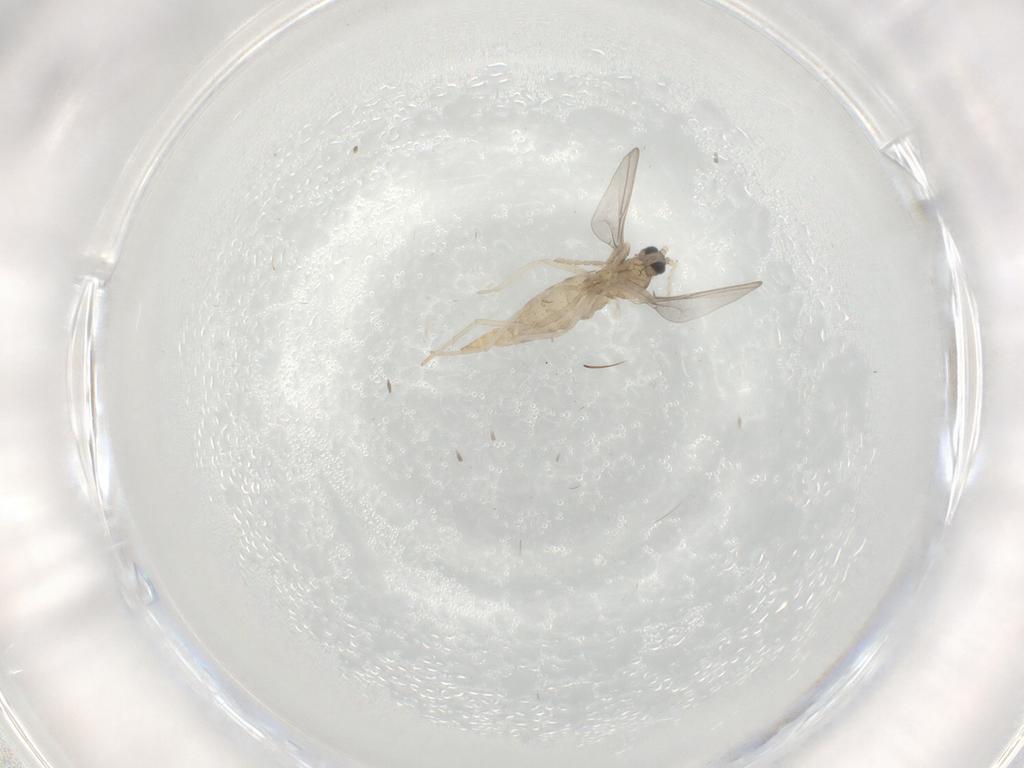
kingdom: Animalia
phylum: Arthropoda
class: Insecta
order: Diptera
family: Cecidomyiidae
